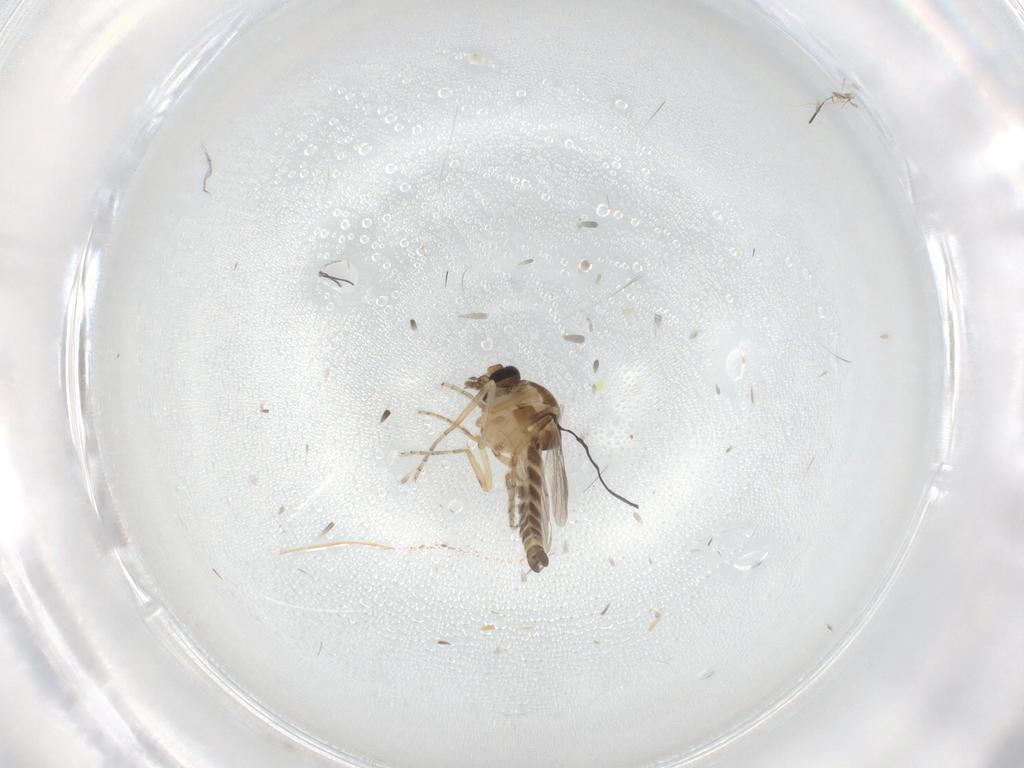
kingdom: Animalia
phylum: Arthropoda
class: Insecta
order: Diptera
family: Ceratopogonidae
